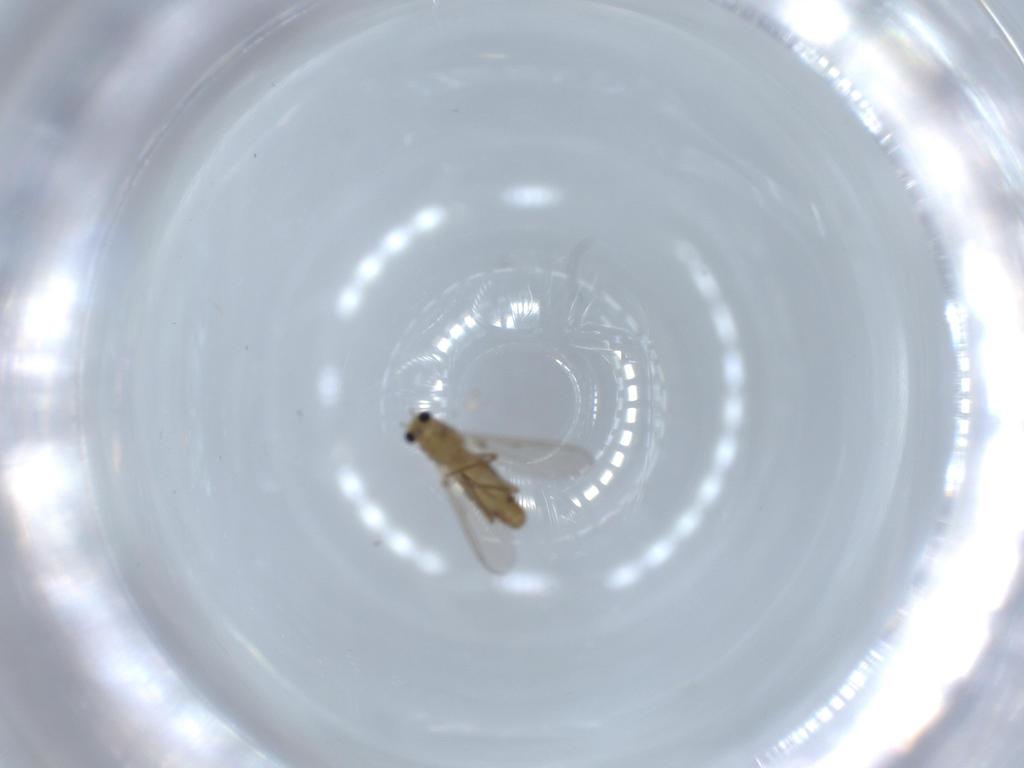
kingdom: Animalia
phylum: Arthropoda
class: Insecta
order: Diptera
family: Chironomidae
